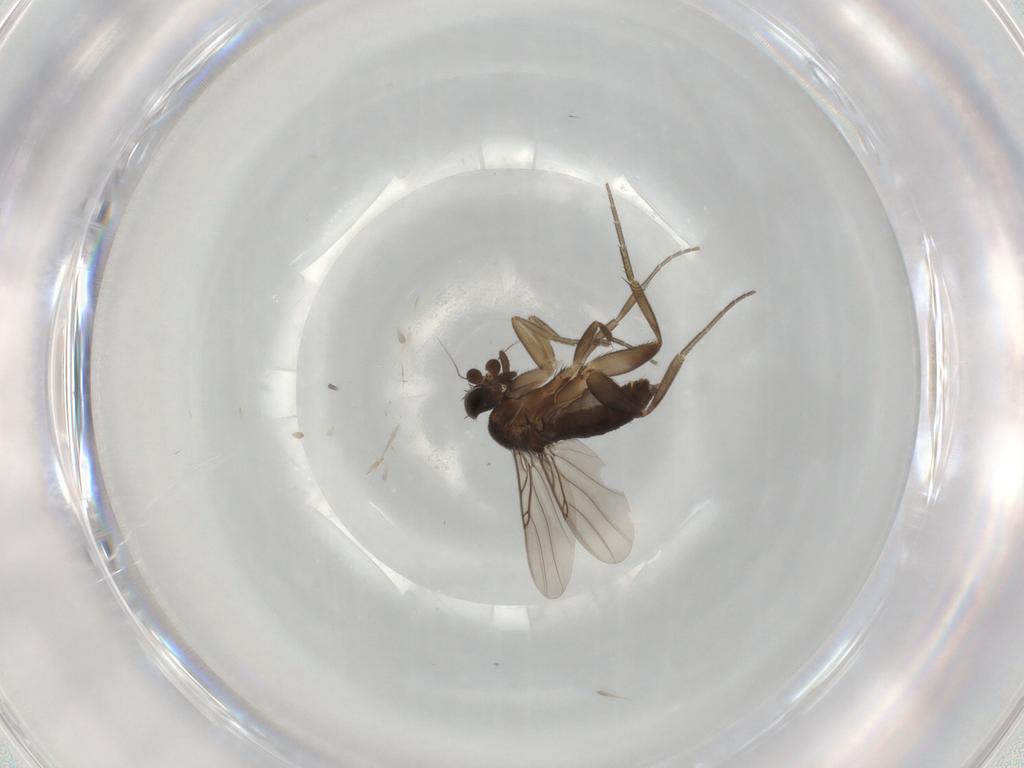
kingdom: Animalia
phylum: Arthropoda
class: Insecta
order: Diptera
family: Phoridae
